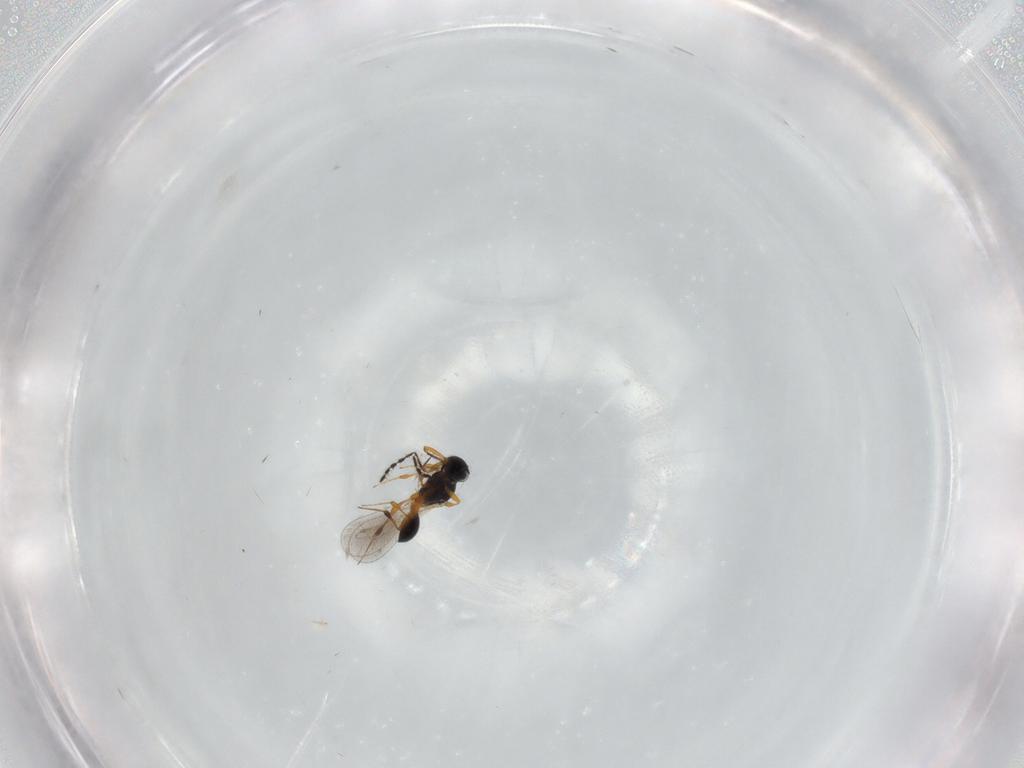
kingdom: Animalia
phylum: Arthropoda
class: Insecta
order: Hymenoptera
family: Platygastridae
